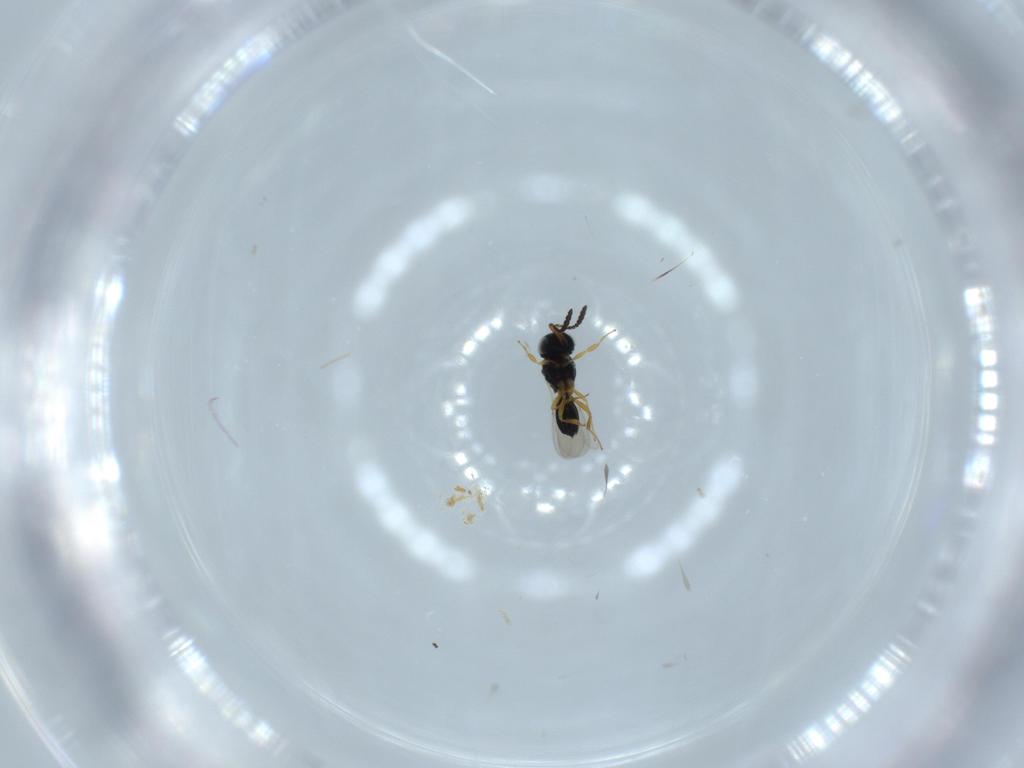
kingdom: Animalia
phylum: Arthropoda
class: Insecta
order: Hymenoptera
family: Scelionidae
